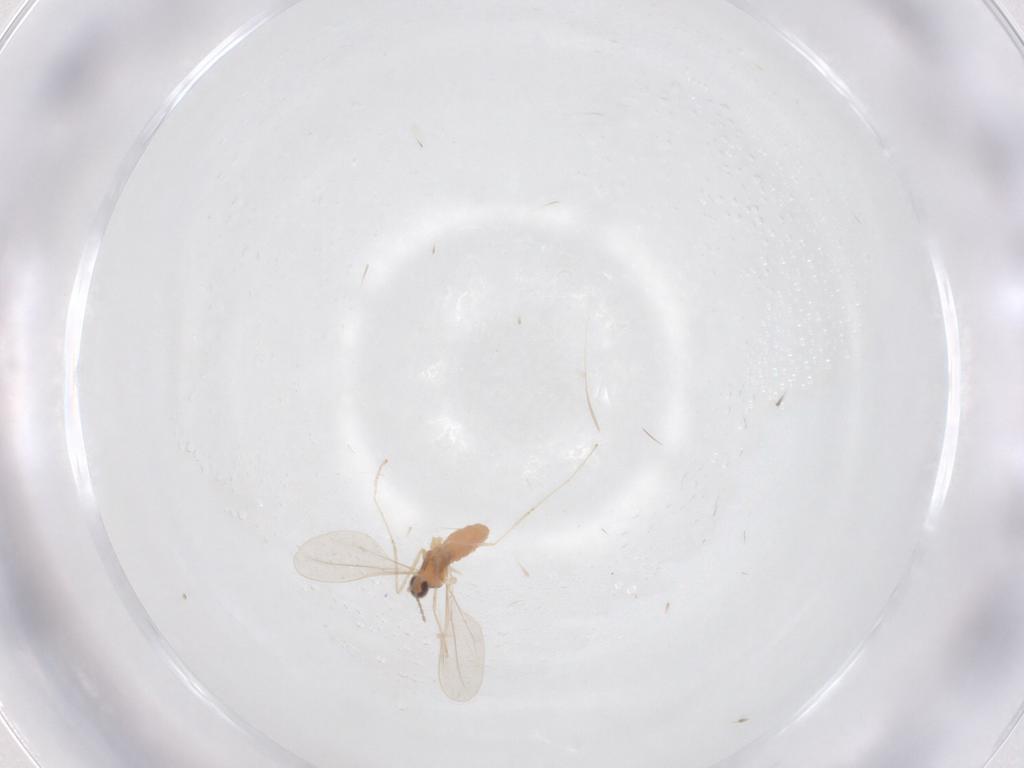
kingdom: Animalia
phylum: Arthropoda
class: Insecta
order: Diptera
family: Cecidomyiidae
